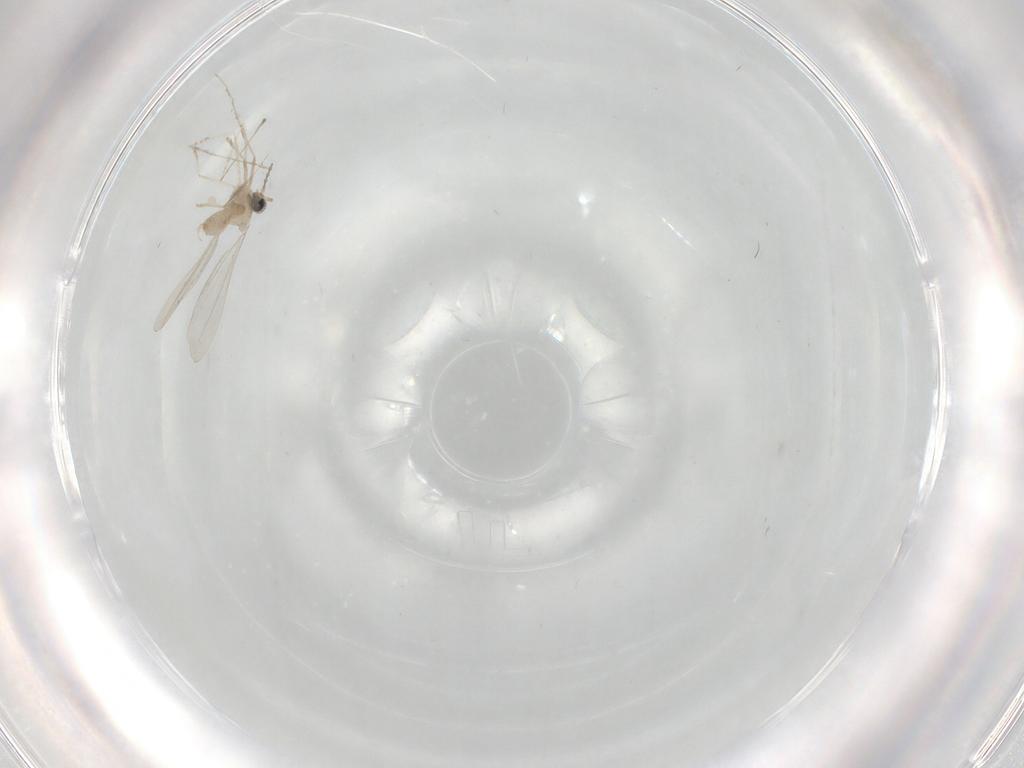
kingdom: Animalia
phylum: Arthropoda
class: Insecta
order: Diptera
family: Cecidomyiidae
